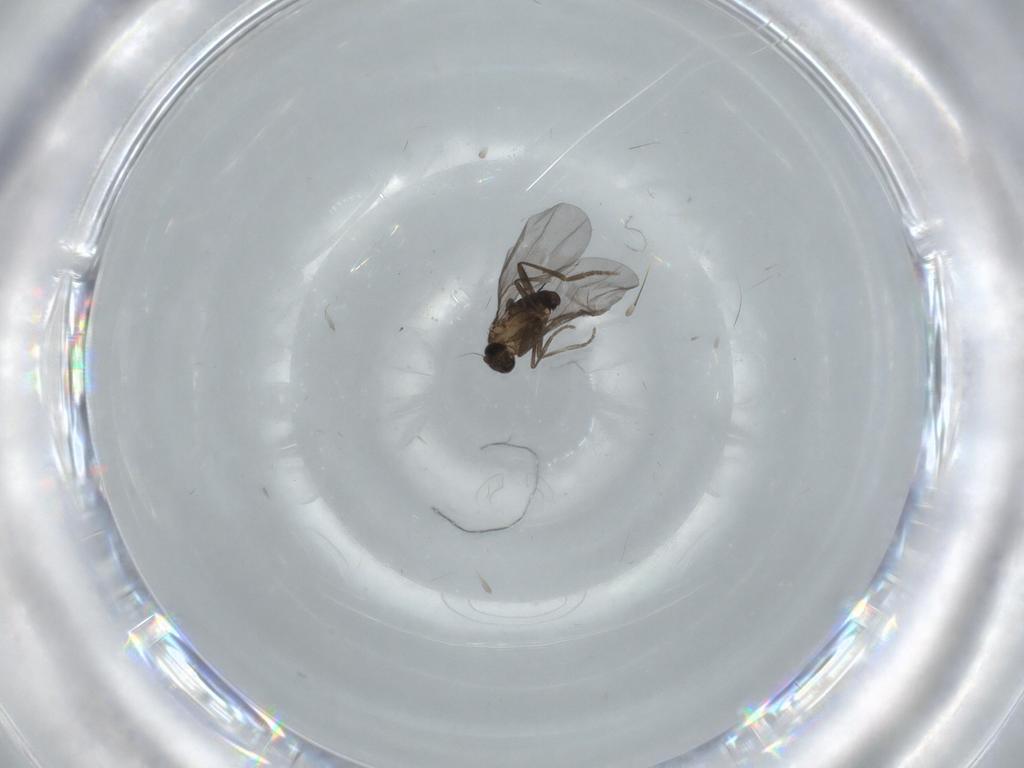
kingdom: Animalia
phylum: Arthropoda
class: Insecta
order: Diptera
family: Phoridae
